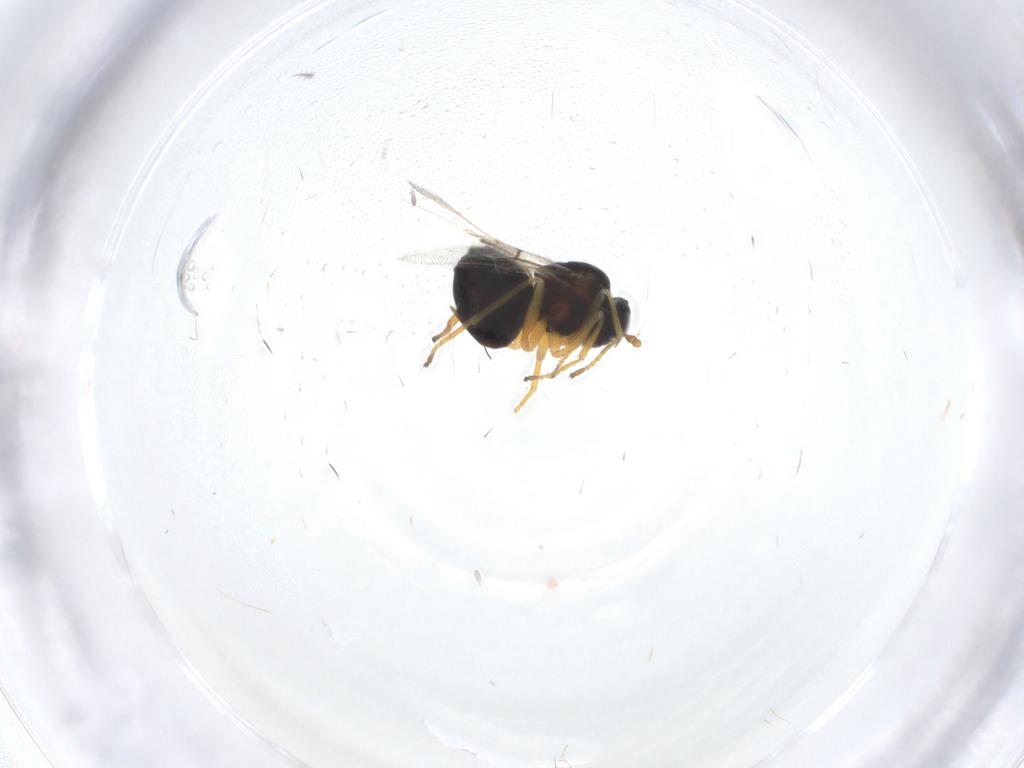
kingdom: Animalia
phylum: Arthropoda
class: Insecta
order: Hymenoptera
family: Cynipidae
